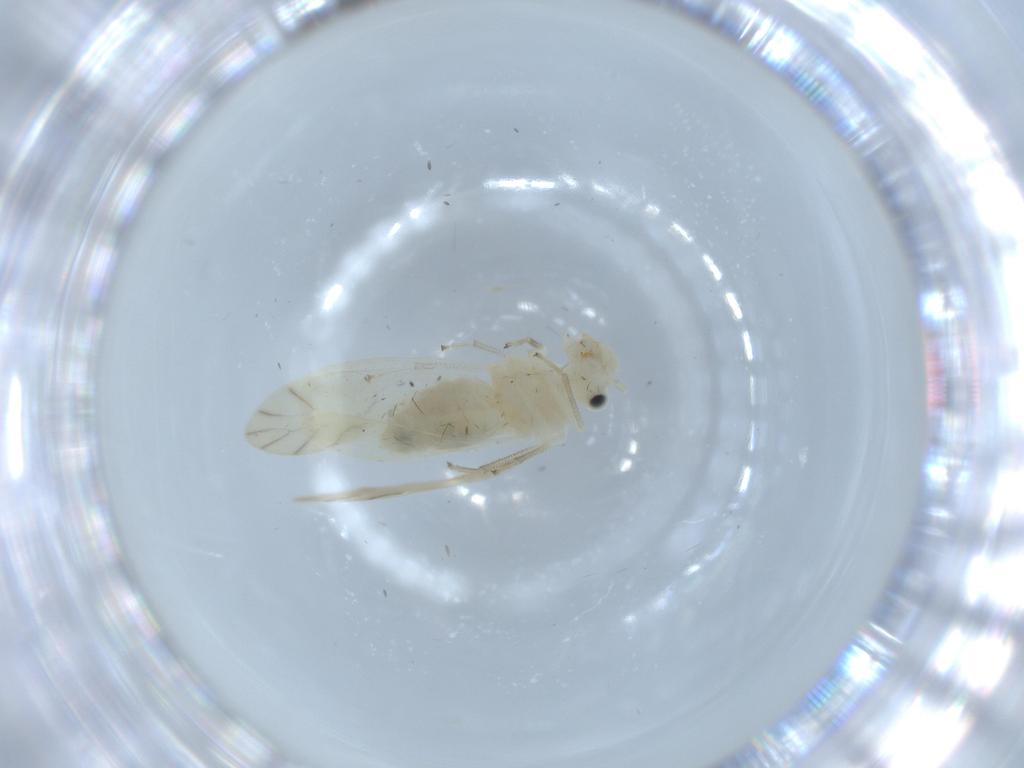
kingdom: Animalia
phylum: Arthropoda
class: Insecta
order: Psocodea
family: Caeciliusidae
